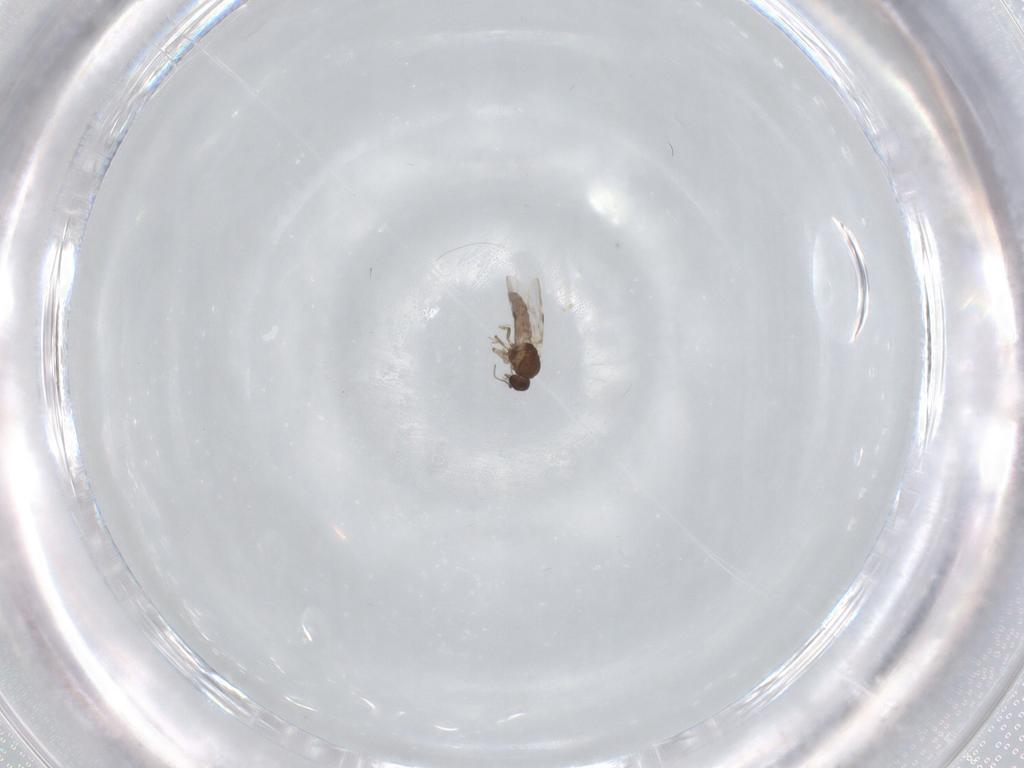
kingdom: Animalia
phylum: Arthropoda
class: Insecta
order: Diptera
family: Phoridae
